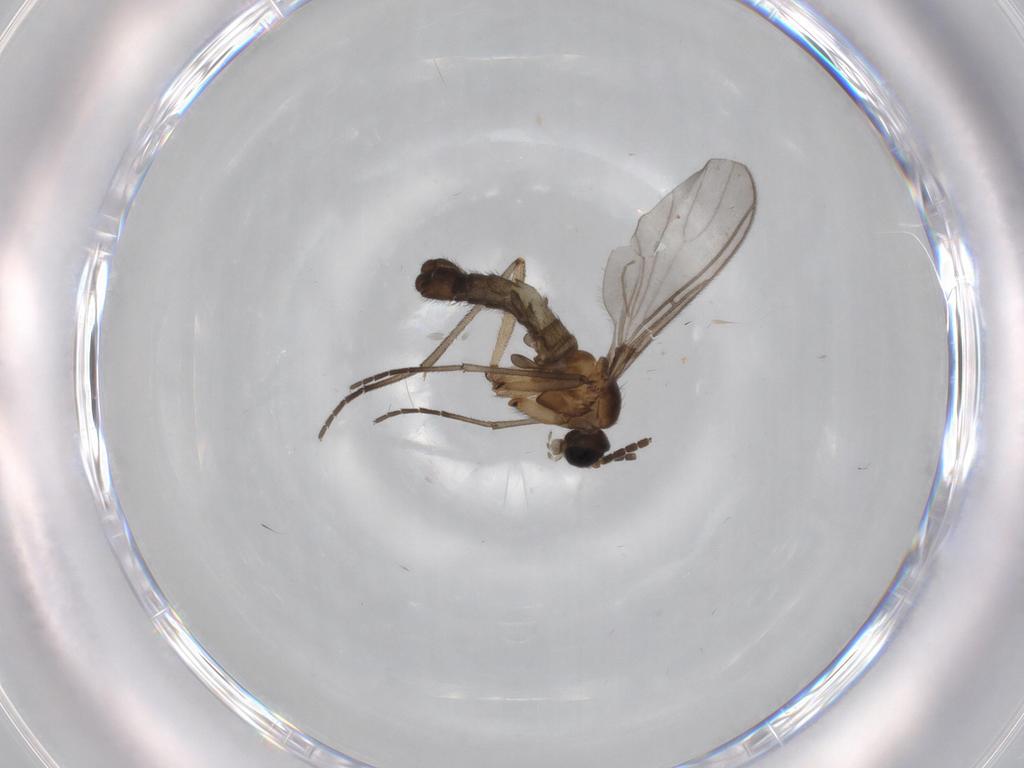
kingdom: Animalia
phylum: Arthropoda
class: Insecta
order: Diptera
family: Sciaridae
